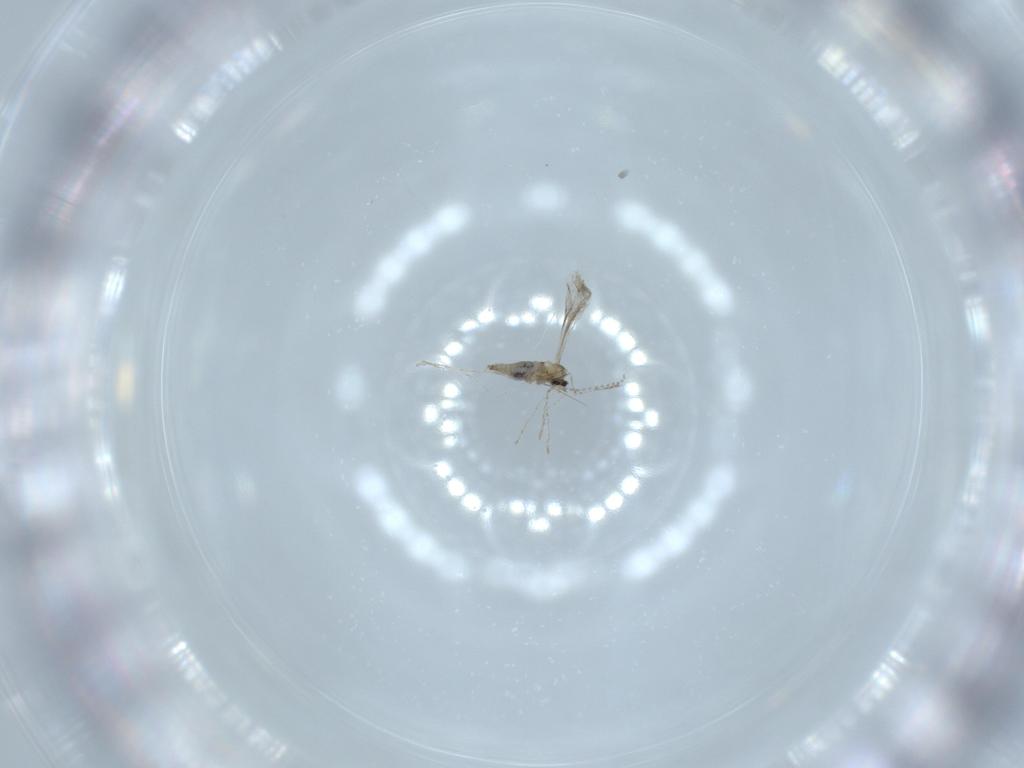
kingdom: Animalia
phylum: Arthropoda
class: Insecta
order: Diptera
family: Cecidomyiidae
